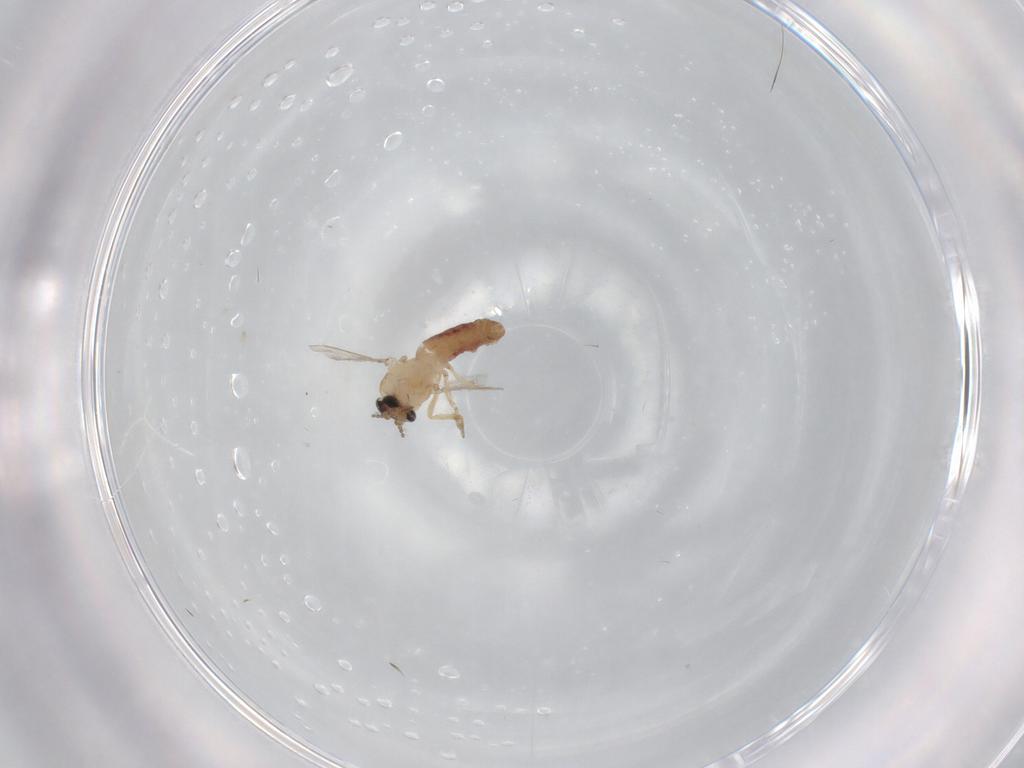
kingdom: Animalia
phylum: Arthropoda
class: Insecta
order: Diptera
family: Ceratopogonidae
